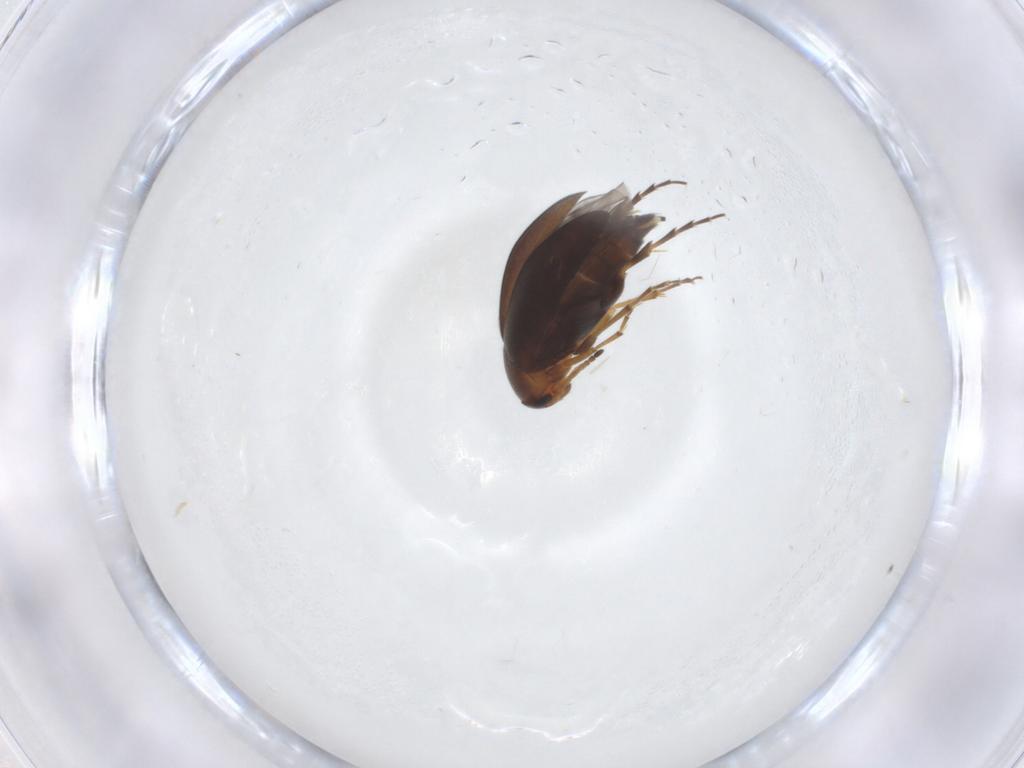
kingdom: Animalia
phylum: Arthropoda
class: Insecta
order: Coleoptera
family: Scraptiidae
